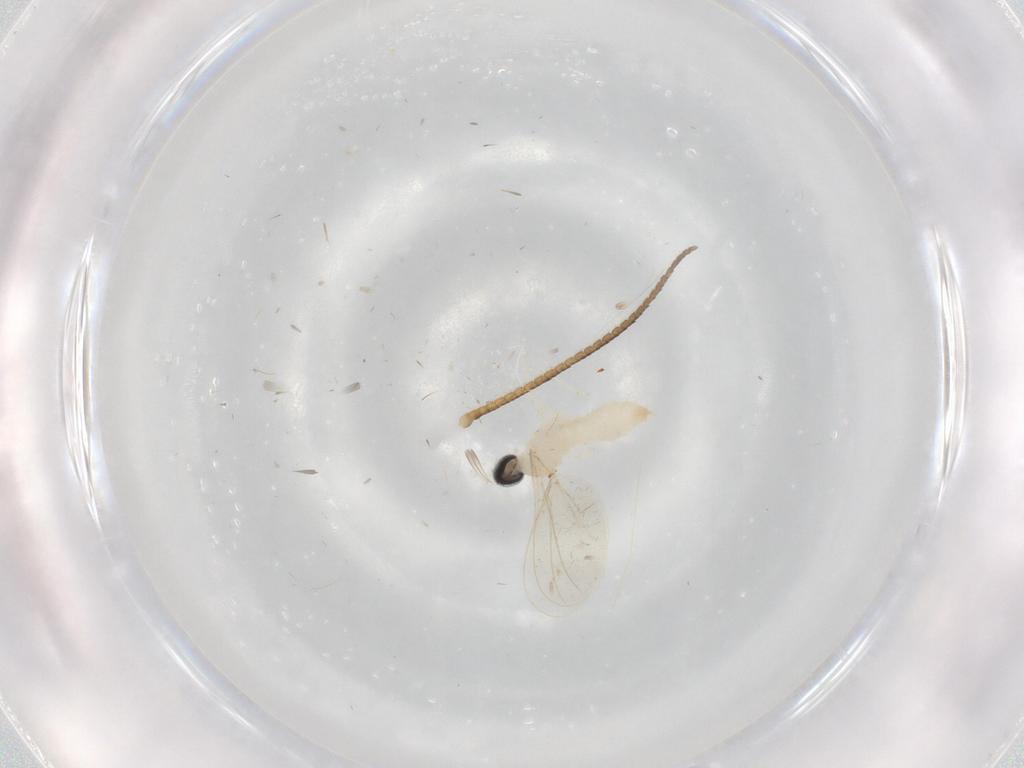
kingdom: Animalia
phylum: Arthropoda
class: Insecta
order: Diptera
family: Cecidomyiidae
